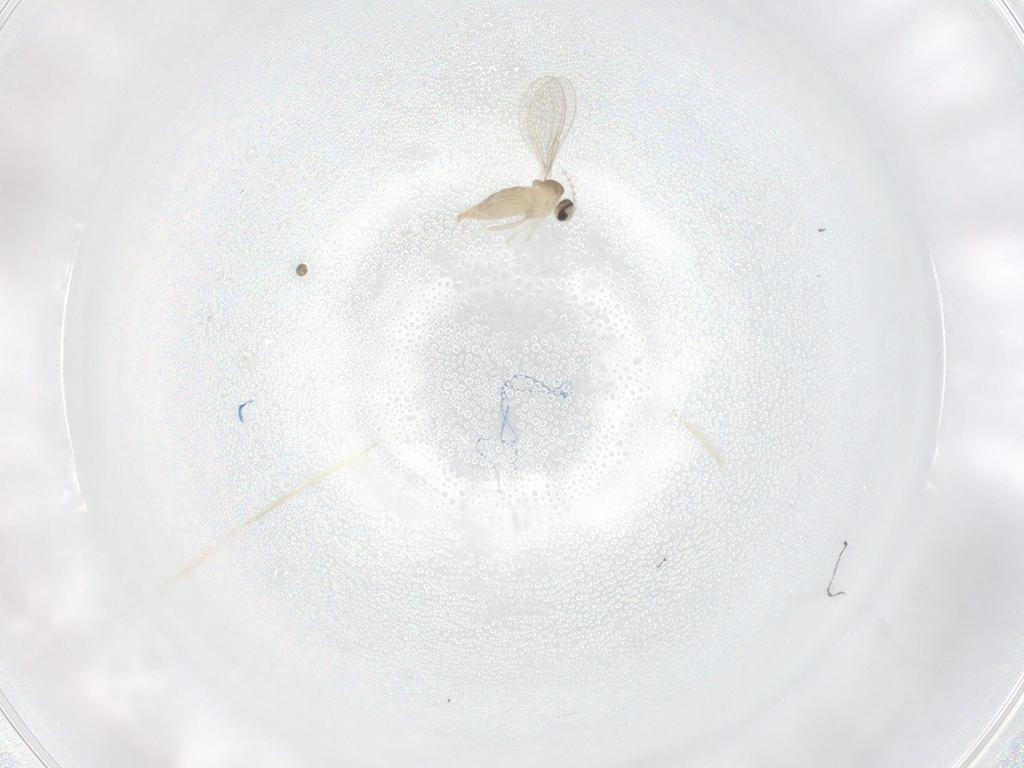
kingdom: Animalia
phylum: Arthropoda
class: Insecta
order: Diptera
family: Cecidomyiidae
